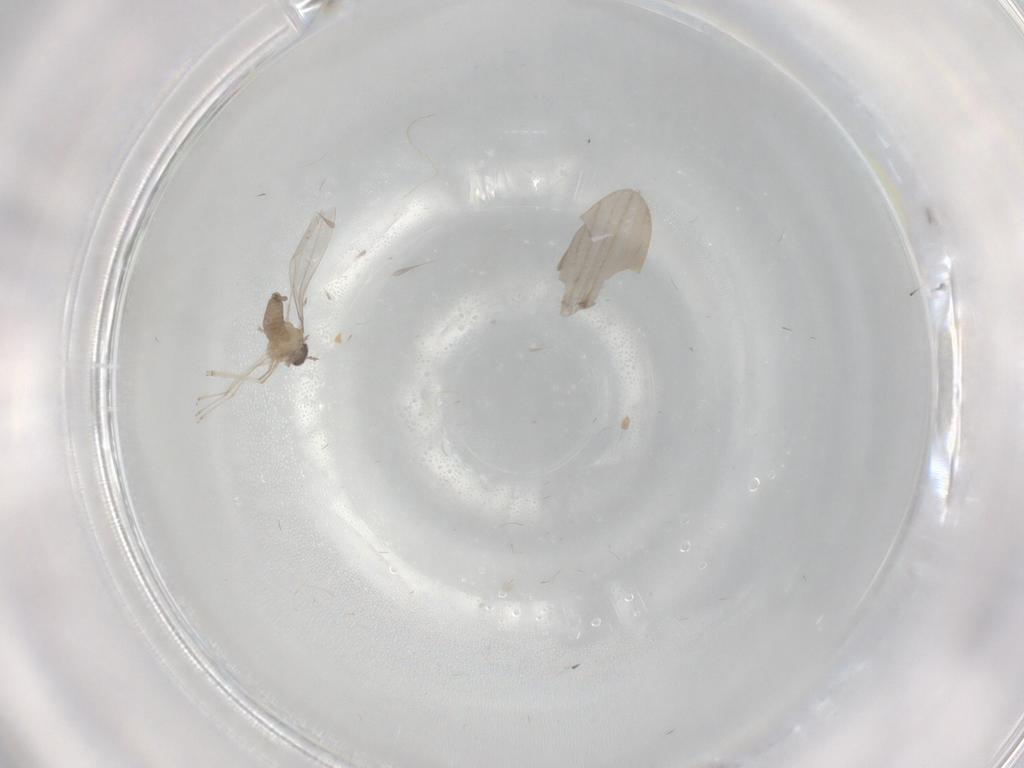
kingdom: Animalia
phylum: Arthropoda
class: Insecta
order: Diptera
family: Cecidomyiidae
